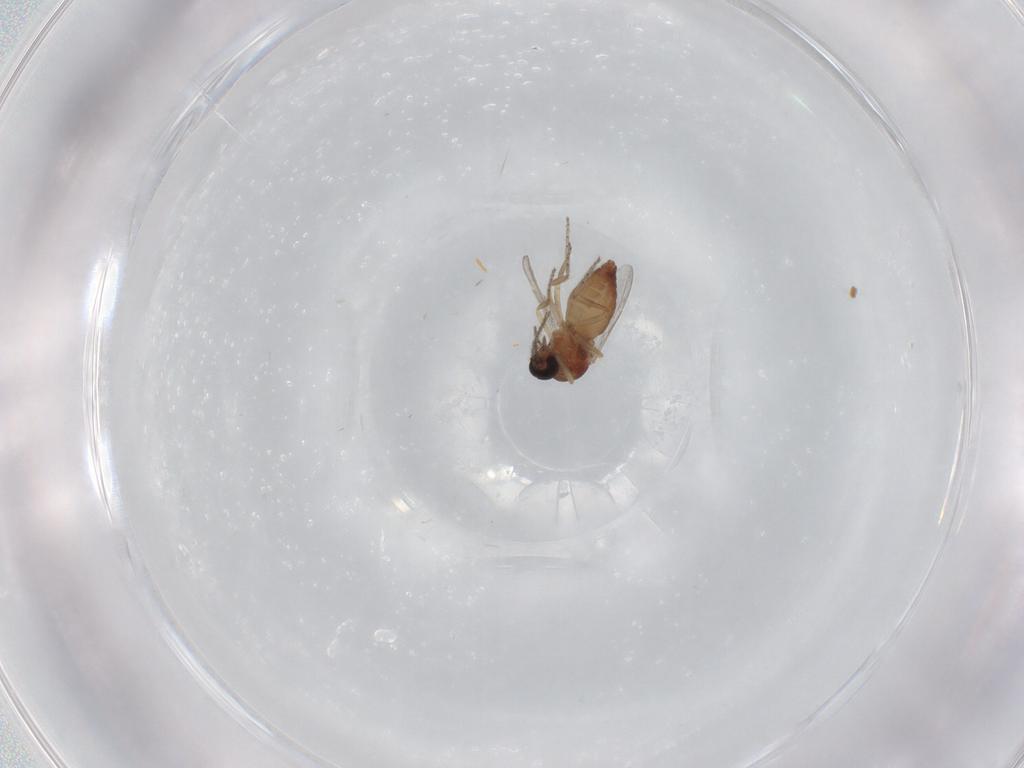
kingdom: Animalia
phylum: Arthropoda
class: Insecta
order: Diptera
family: Ceratopogonidae
